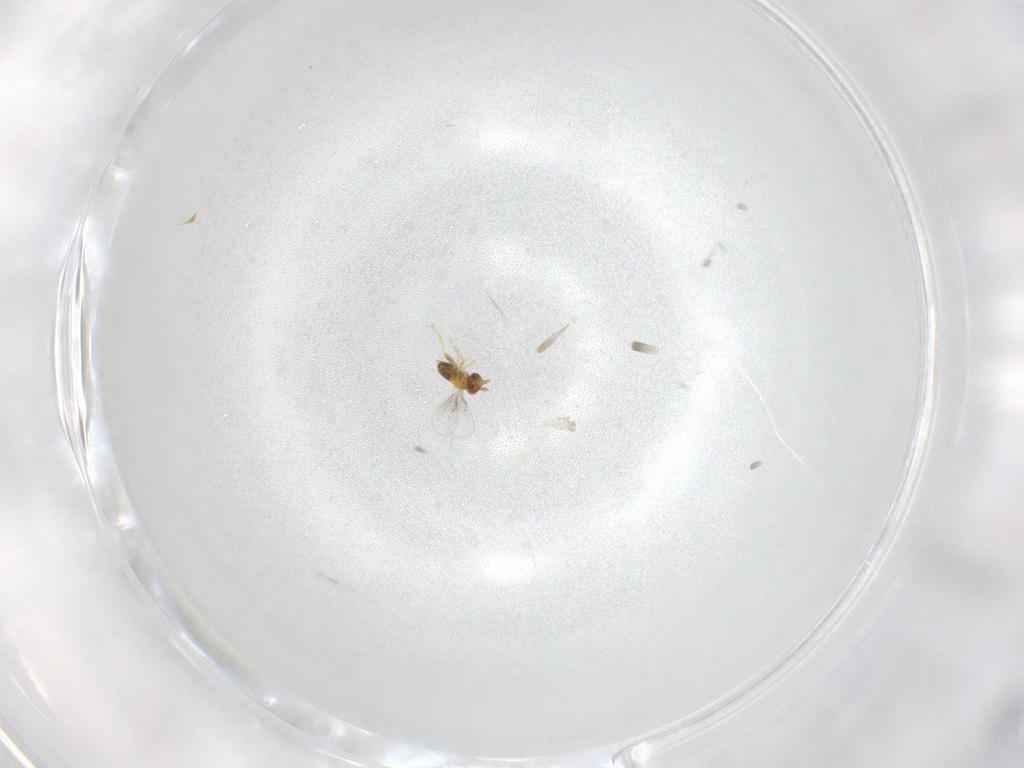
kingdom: Animalia
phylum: Arthropoda
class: Insecta
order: Hymenoptera
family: Trichogrammatidae
